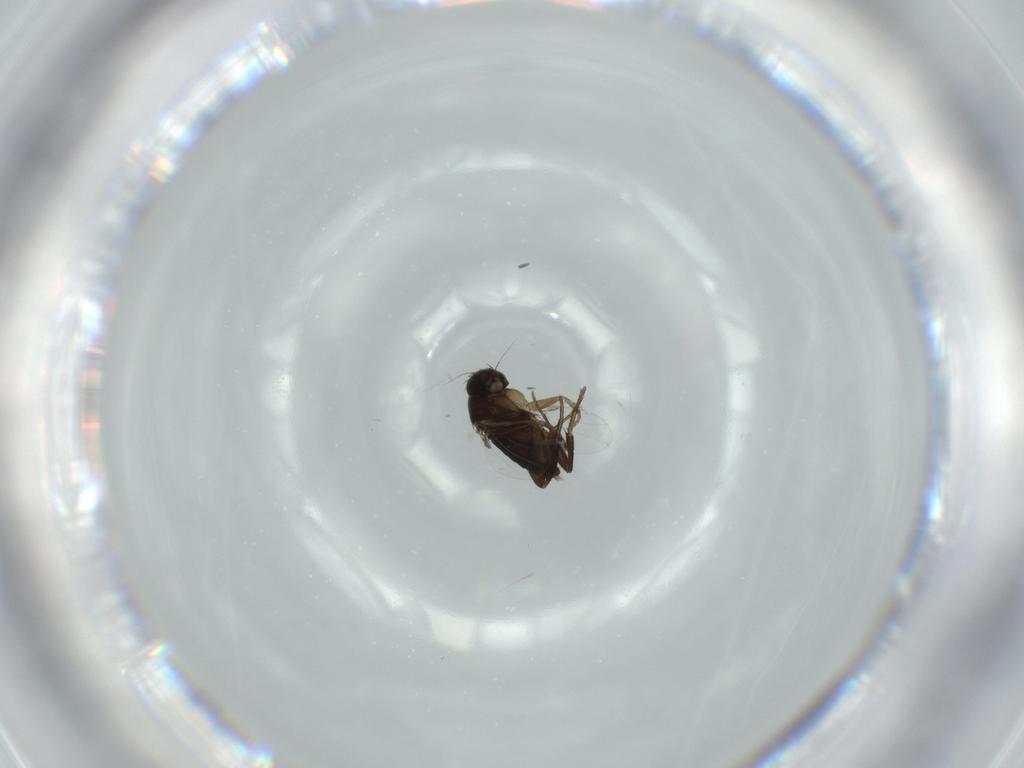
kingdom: Animalia
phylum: Arthropoda
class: Insecta
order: Diptera
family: Phoridae
